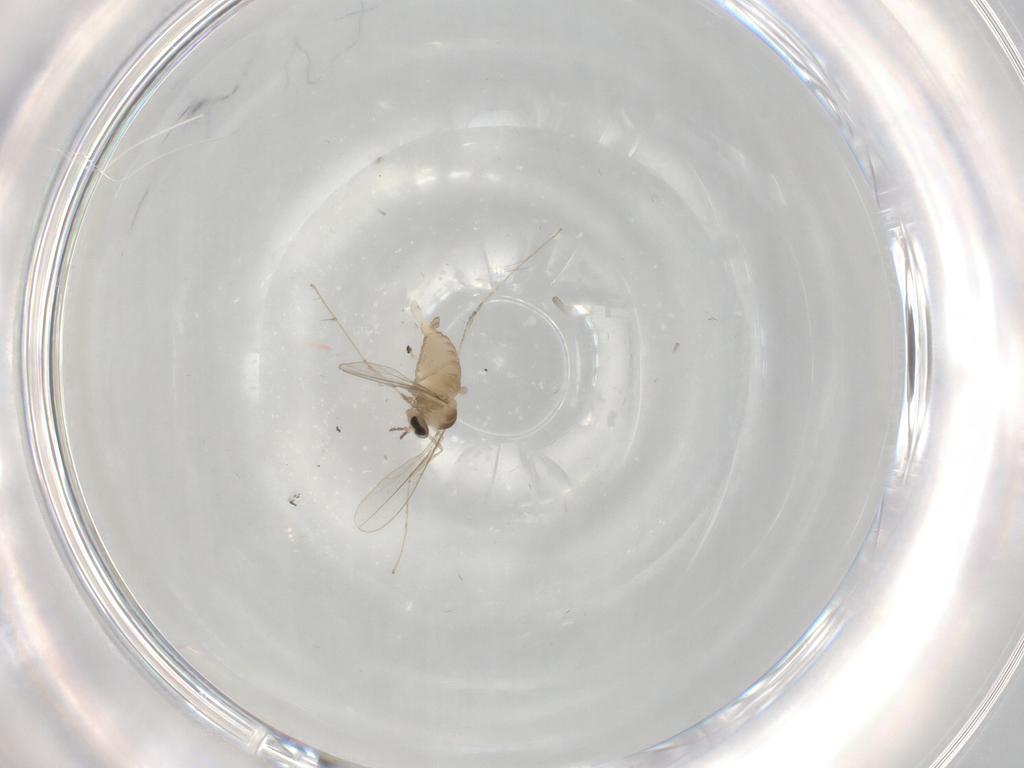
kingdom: Animalia
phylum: Arthropoda
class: Insecta
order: Diptera
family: Cecidomyiidae
